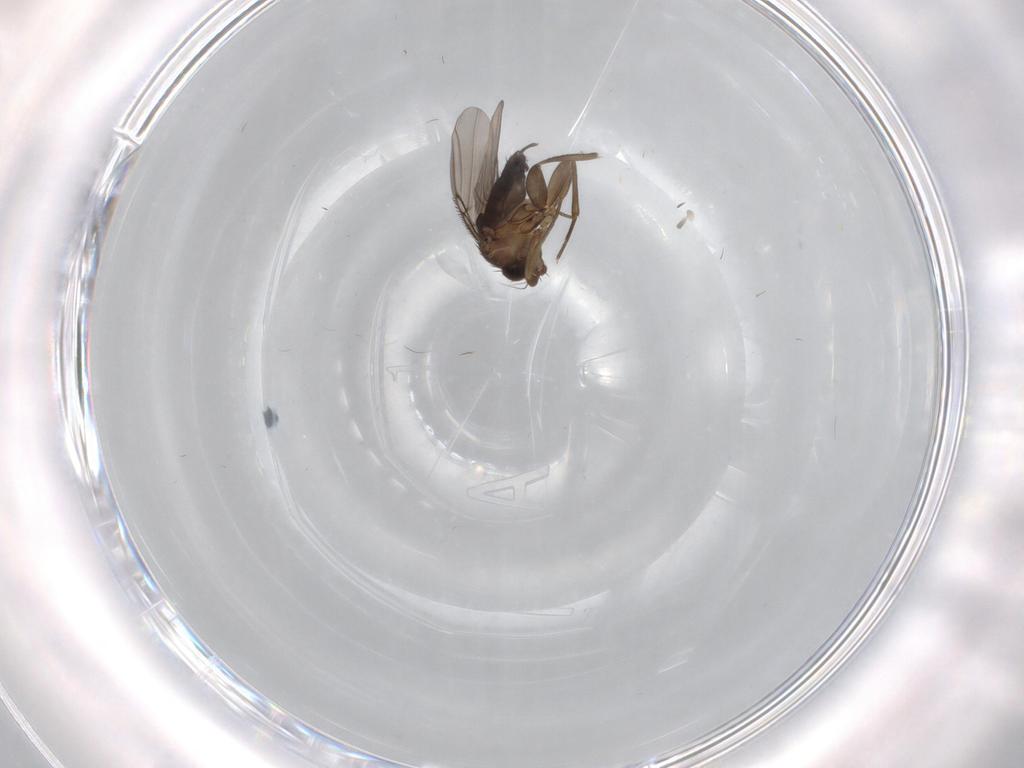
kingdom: Animalia
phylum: Arthropoda
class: Insecta
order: Diptera
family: Phoridae
